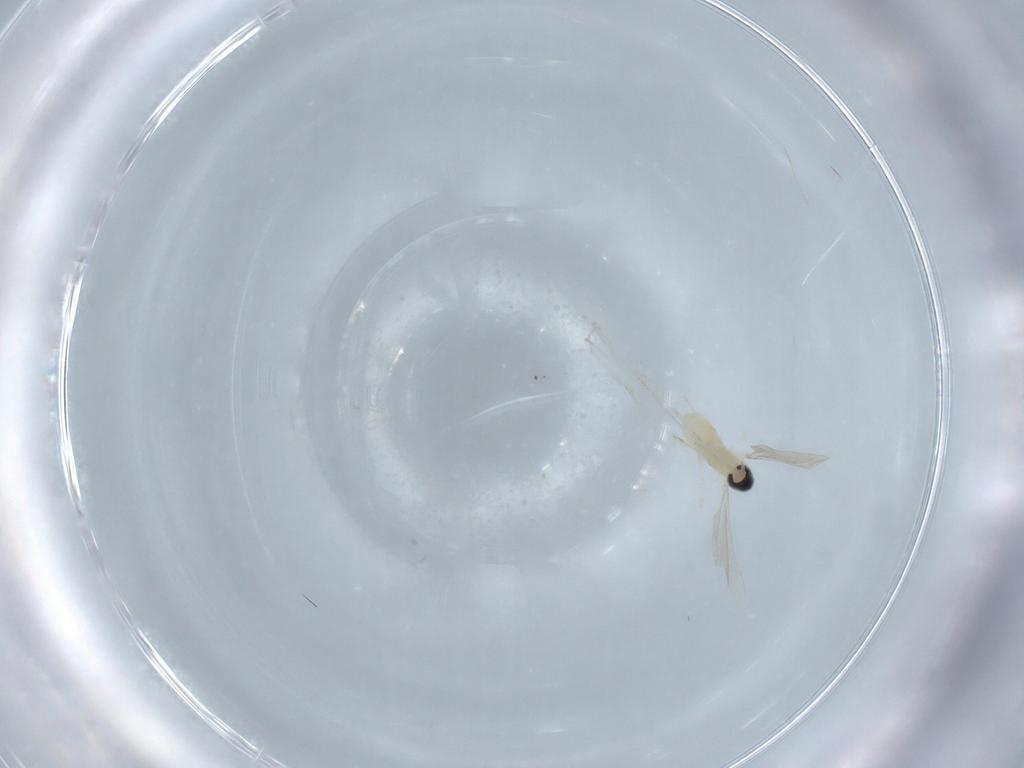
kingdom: Animalia
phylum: Arthropoda
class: Insecta
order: Diptera
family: Cecidomyiidae
